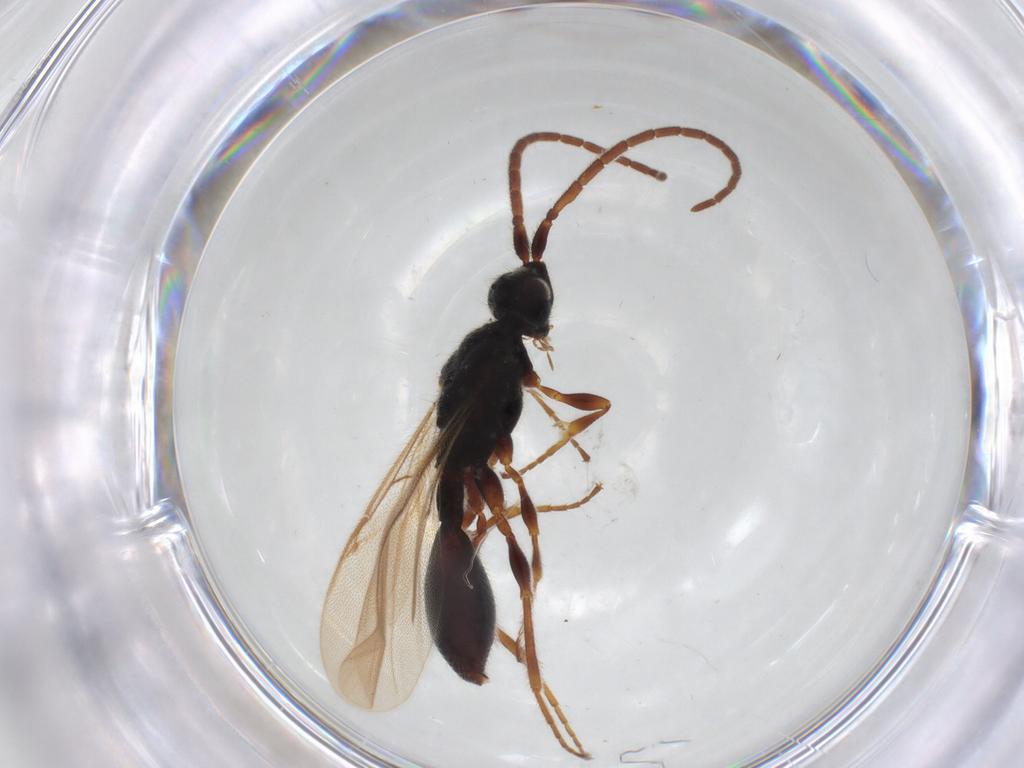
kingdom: Animalia
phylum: Arthropoda
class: Insecta
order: Hymenoptera
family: Diapriidae
